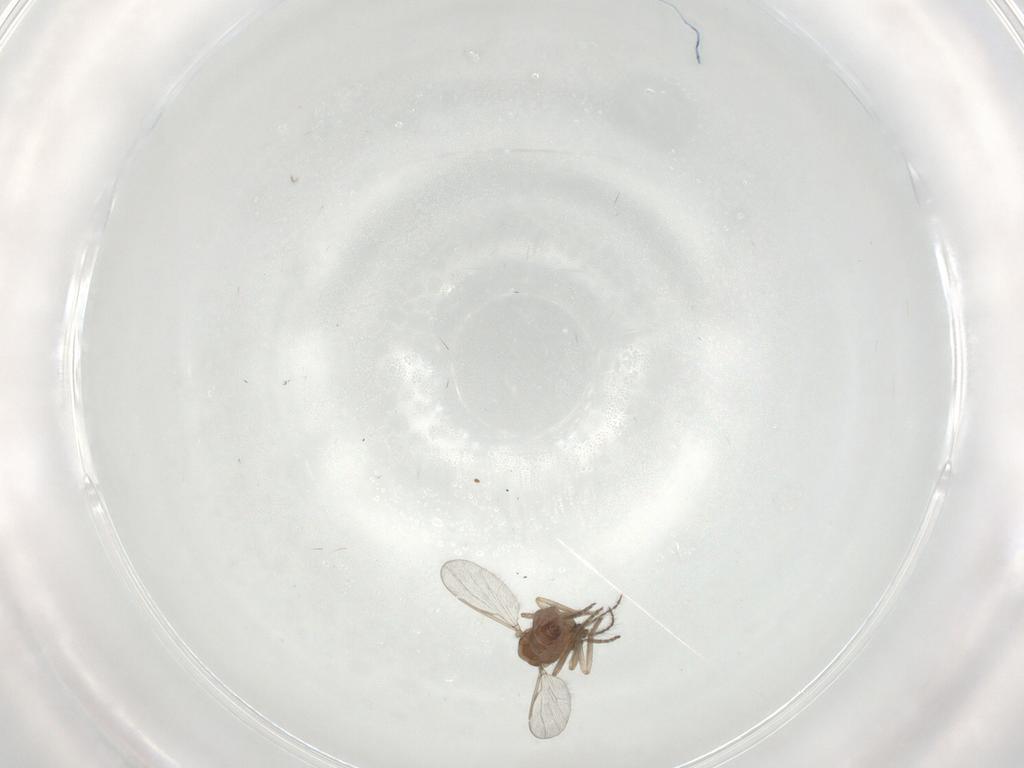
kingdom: Animalia
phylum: Arthropoda
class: Insecta
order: Diptera
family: Ceratopogonidae
